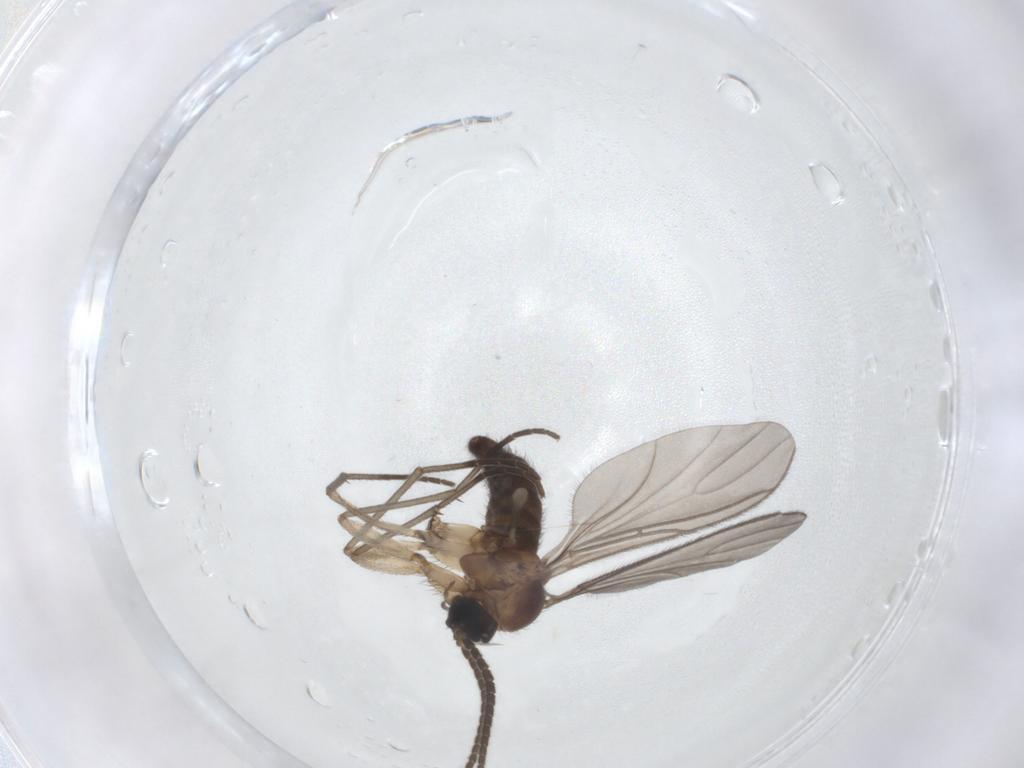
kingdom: Animalia
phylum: Arthropoda
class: Insecta
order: Diptera
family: Sciaridae
